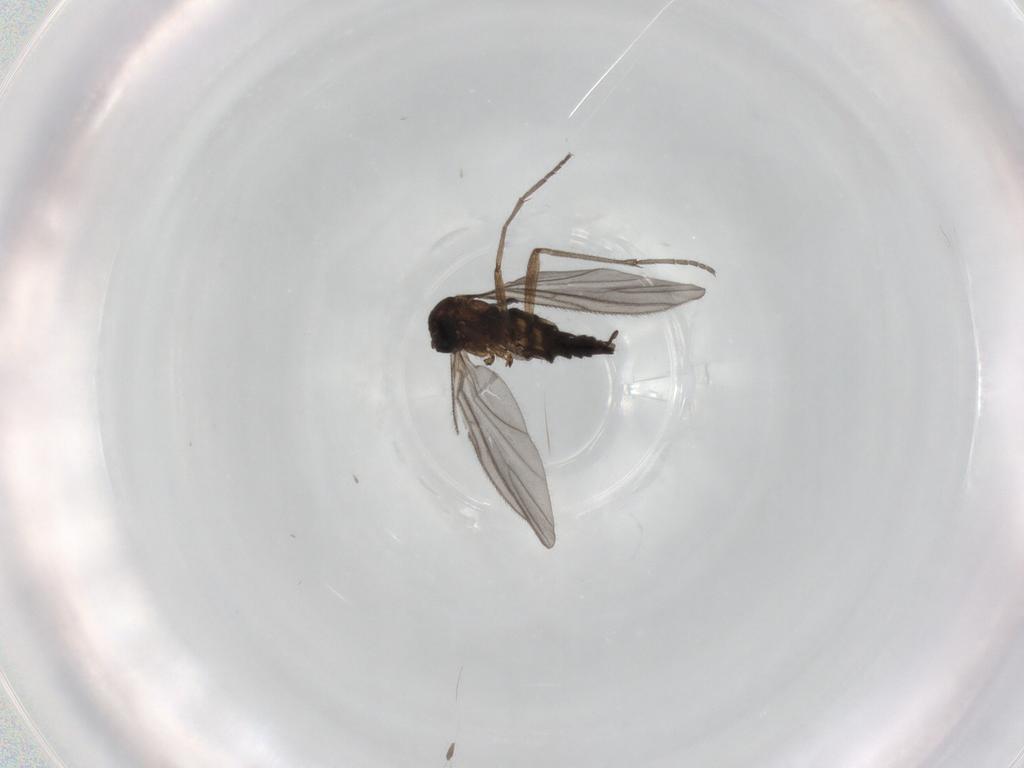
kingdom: Animalia
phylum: Arthropoda
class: Insecta
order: Diptera
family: Sciaridae
